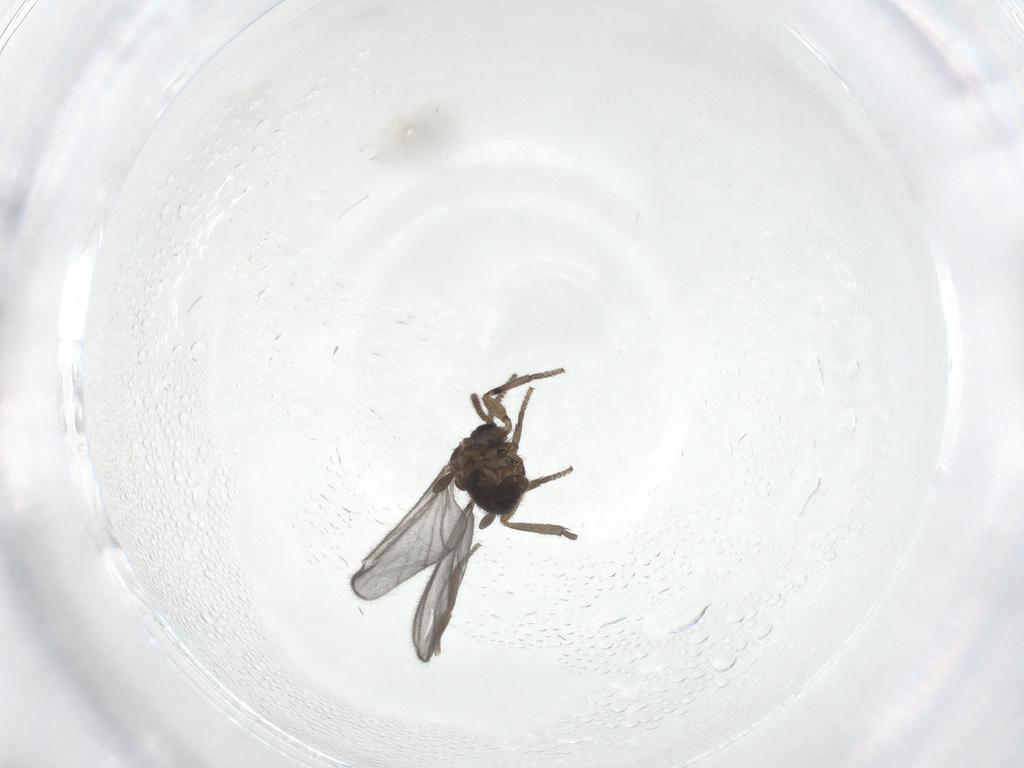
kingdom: Animalia
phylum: Arthropoda
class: Insecta
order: Diptera
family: Sciaridae
